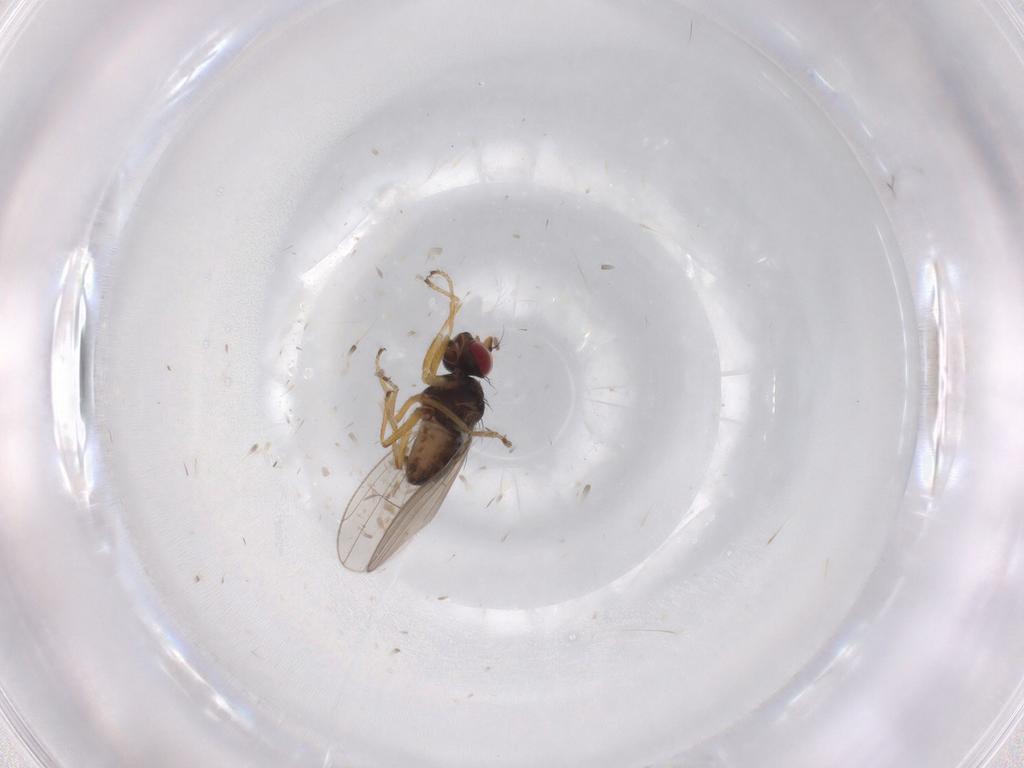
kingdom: Animalia
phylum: Arthropoda
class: Insecta
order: Diptera
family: Ephydridae
